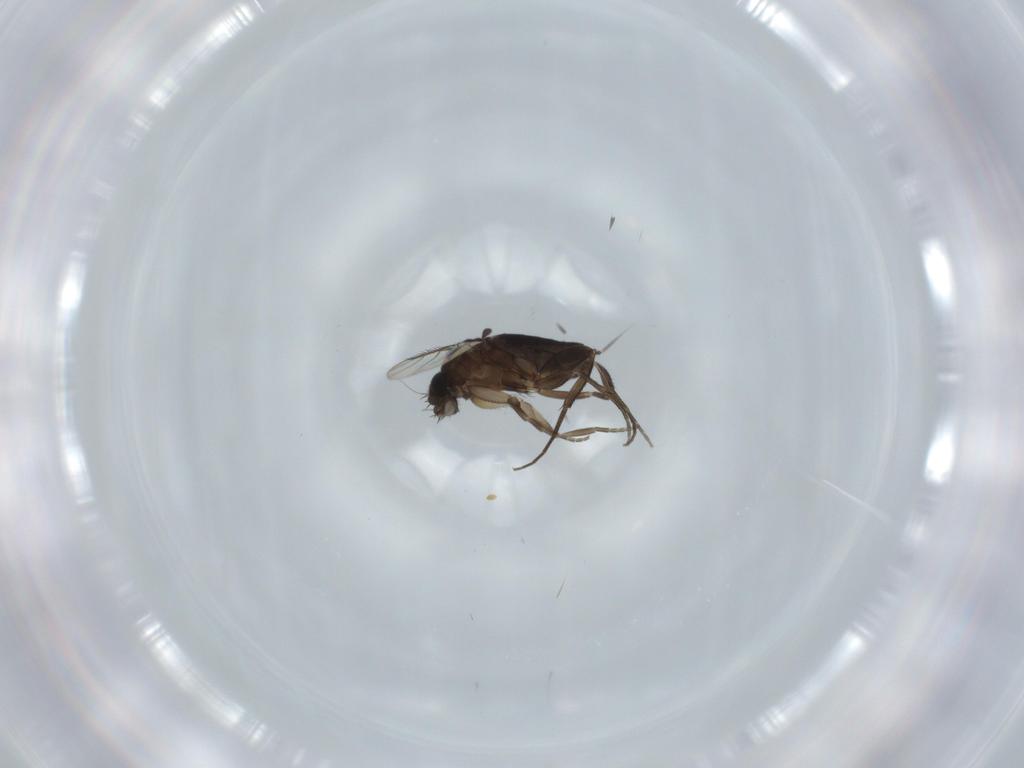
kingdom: Animalia
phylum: Arthropoda
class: Insecta
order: Diptera
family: Phoridae
